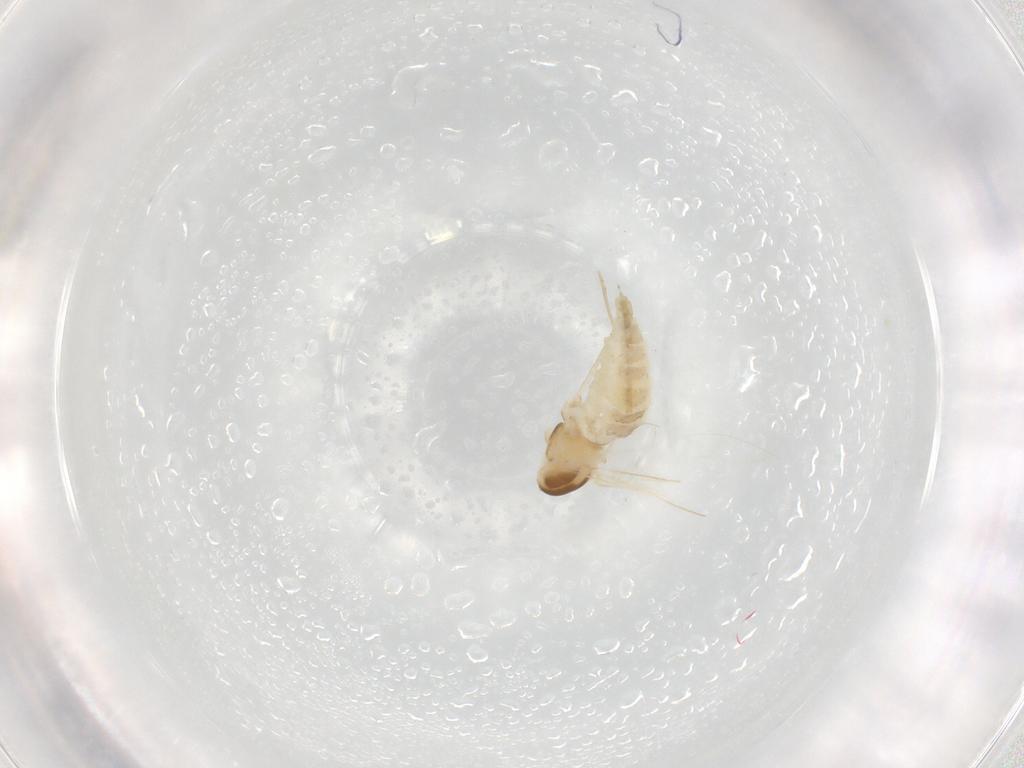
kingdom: Animalia
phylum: Arthropoda
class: Insecta
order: Diptera
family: Cecidomyiidae
